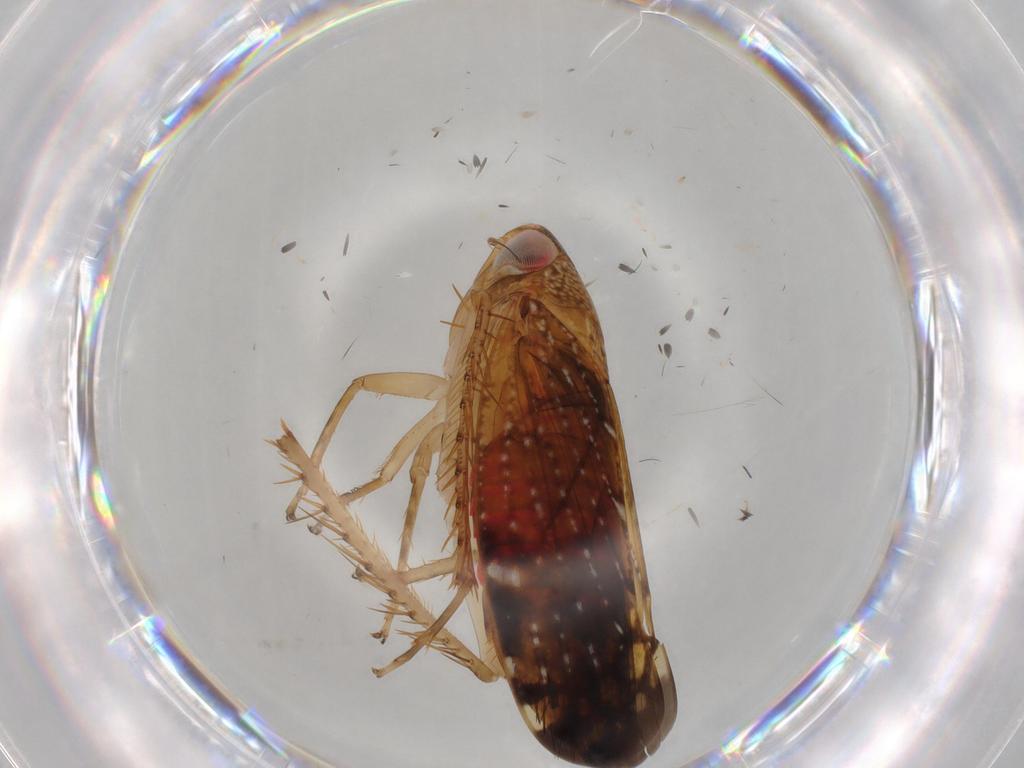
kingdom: Animalia
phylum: Arthropoda
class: Insecta
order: Hemiptera
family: Cicadellidae
